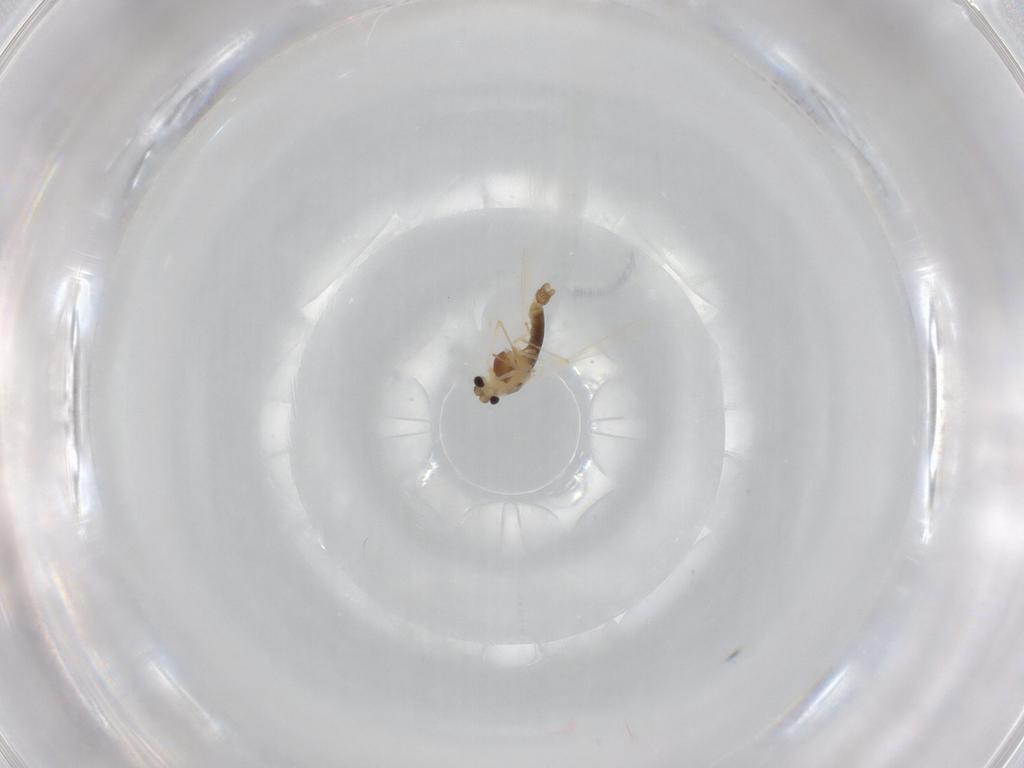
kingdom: Animalia
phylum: Arthropoda
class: Insecta
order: Diptera
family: Chironomidae
